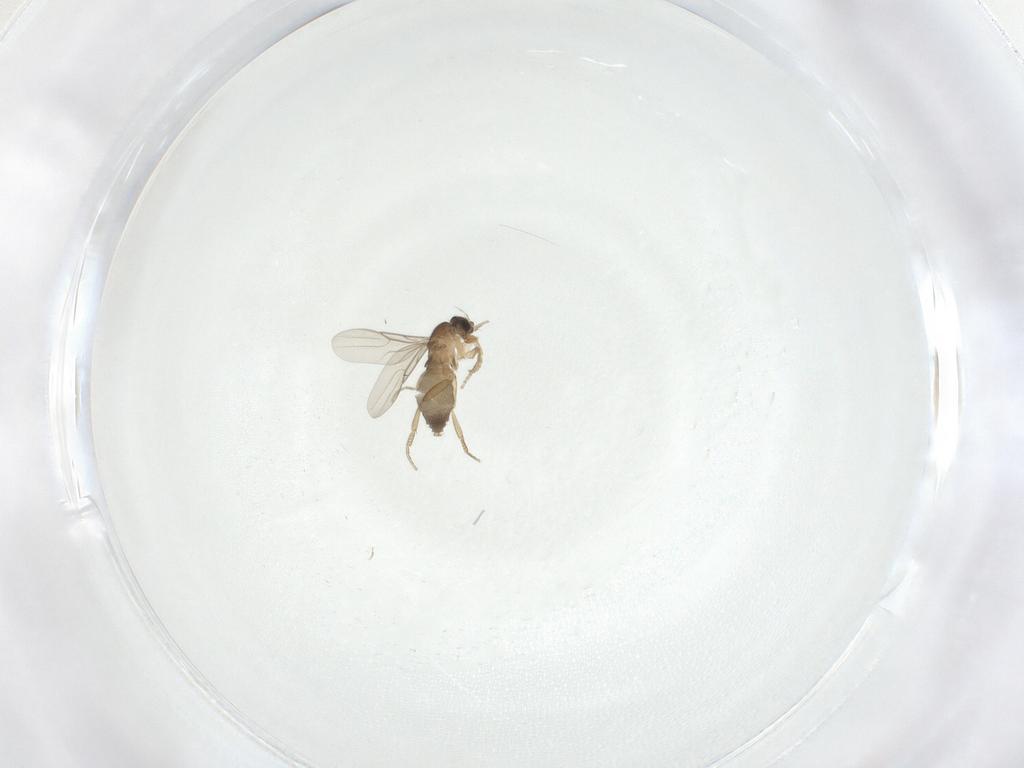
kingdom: Animalia
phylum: Arthropoda
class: Insecta
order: Diptera
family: Phoridae
